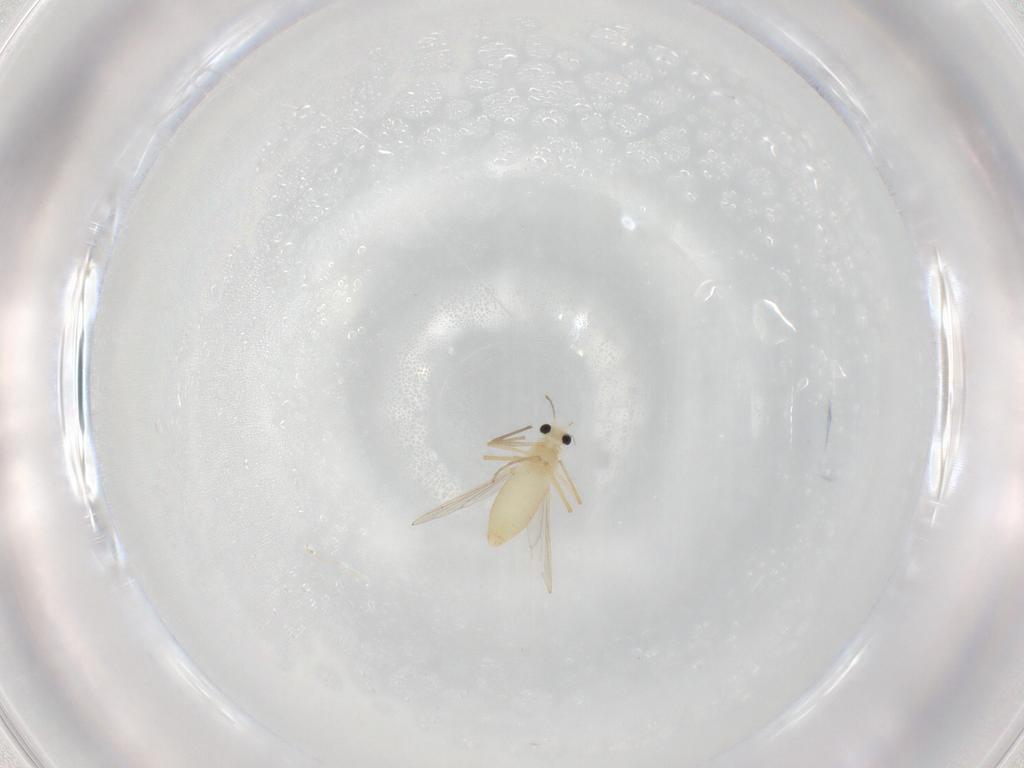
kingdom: Animalia
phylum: Arthropoda
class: Insecta
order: Diptera
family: Chironomidae
